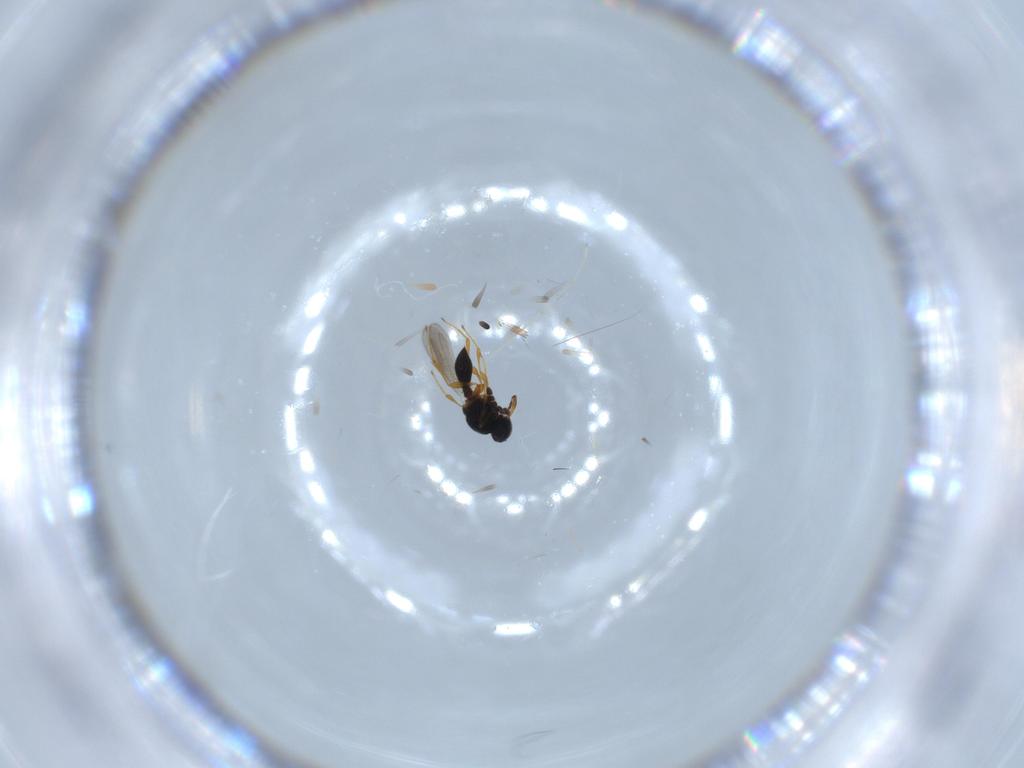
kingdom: Animalia
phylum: Arthropoda
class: Insecta
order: Hymenoptera
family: Platygastridae
